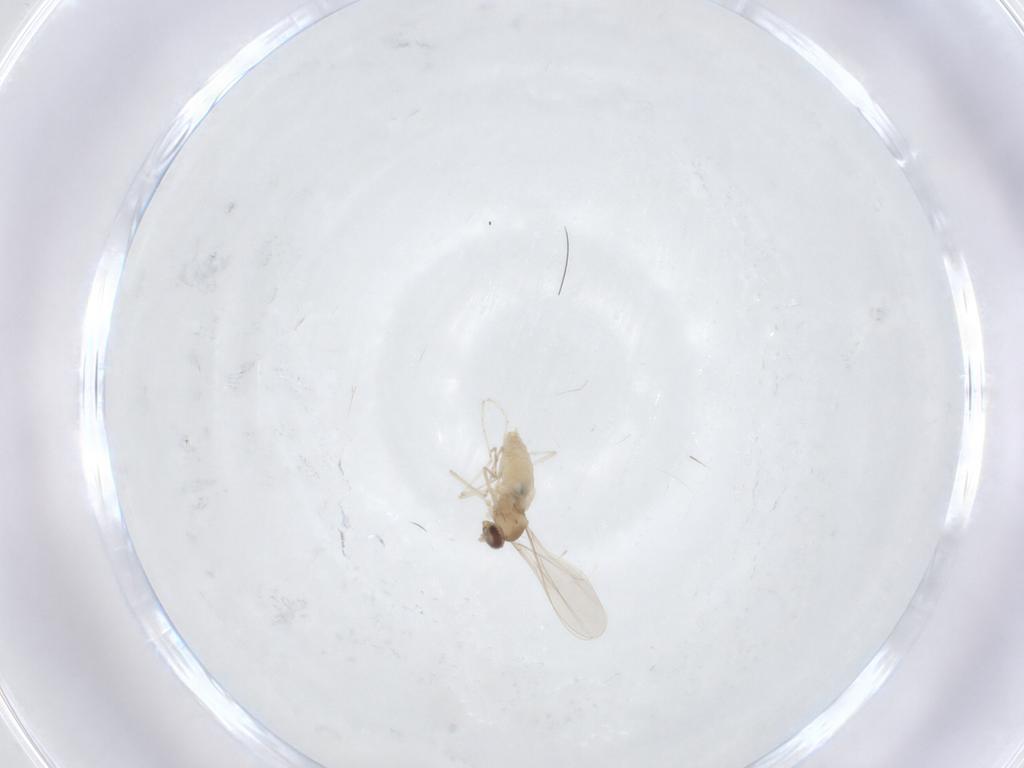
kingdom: Animalia
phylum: Arthropoda
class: Insecta
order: Diptera
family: Cecidomyiidae
